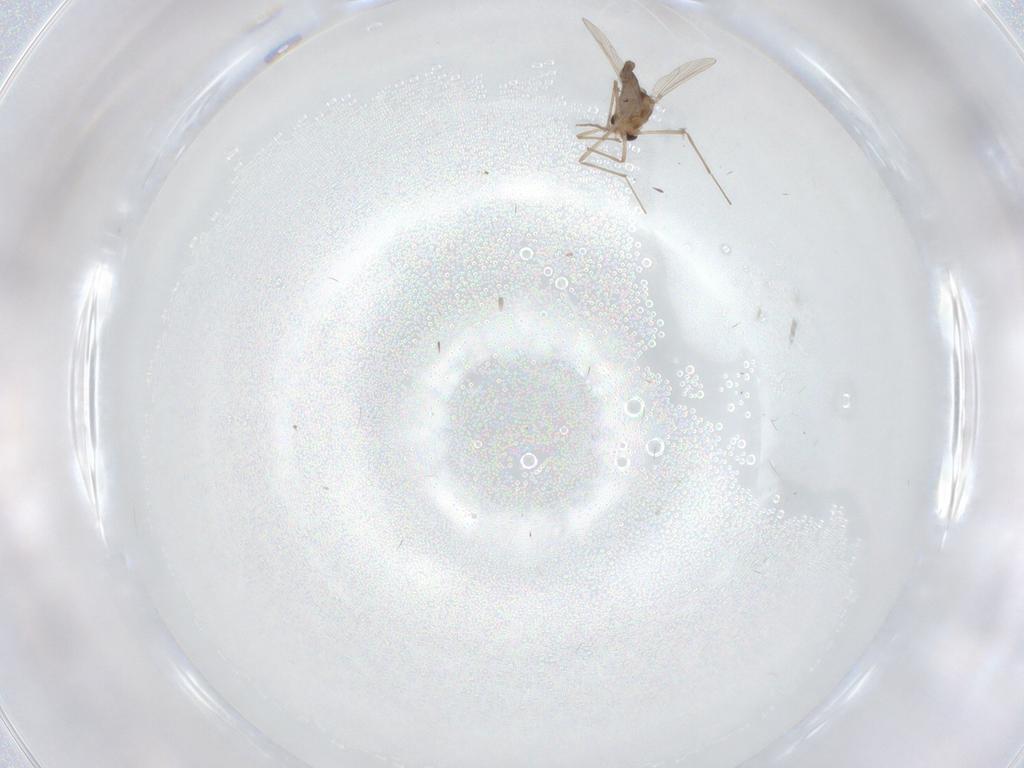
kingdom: Animalia
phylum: Arthropoda
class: Insecta
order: Diptera
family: Chironomidae
